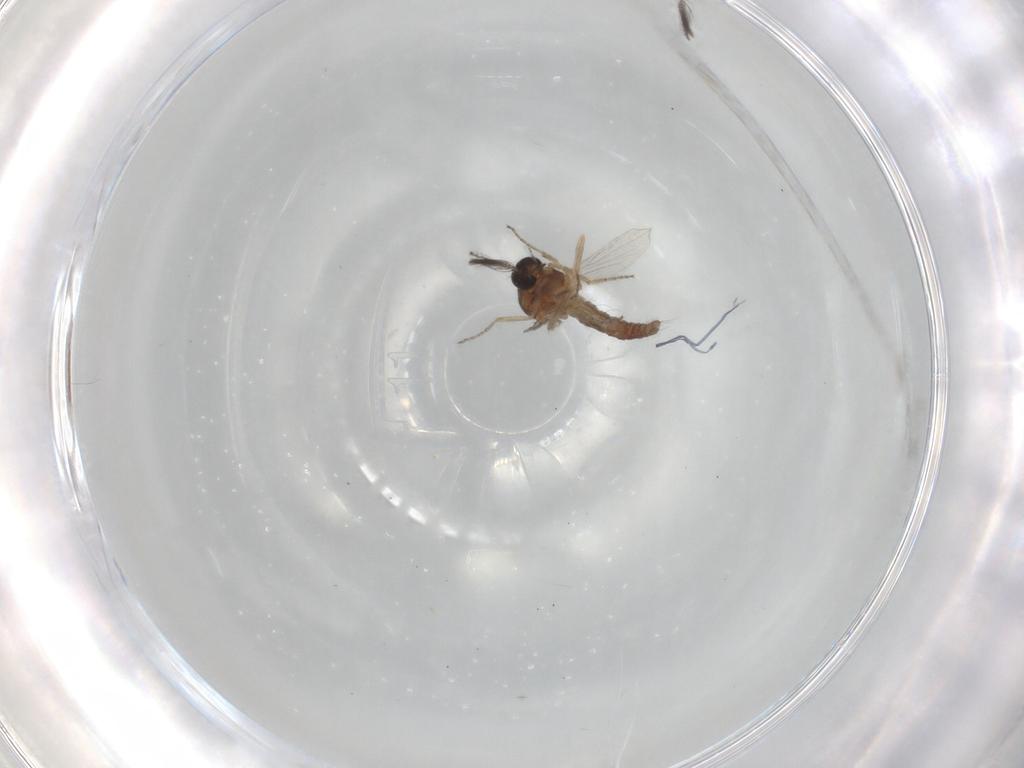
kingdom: Animalia
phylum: Arthropoda
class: Insecta
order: Diptera
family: Ceratopogonidae
